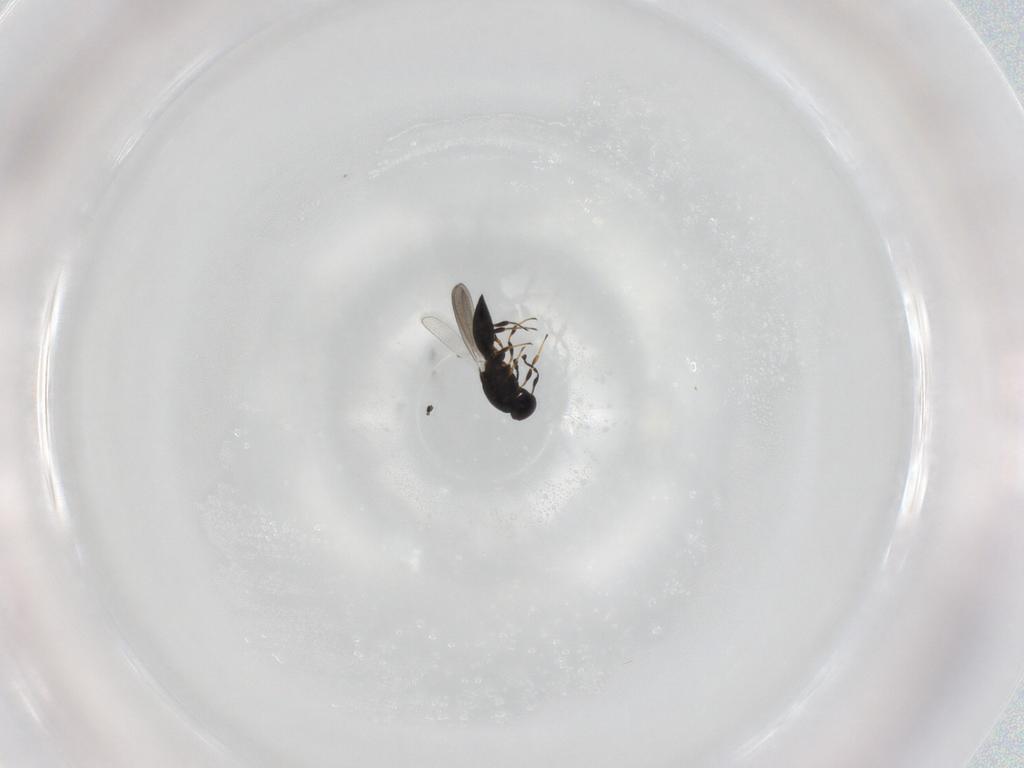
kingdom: Animalia
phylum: Arthropoda
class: Insecta
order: Hymenoptera
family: Platygastridae
